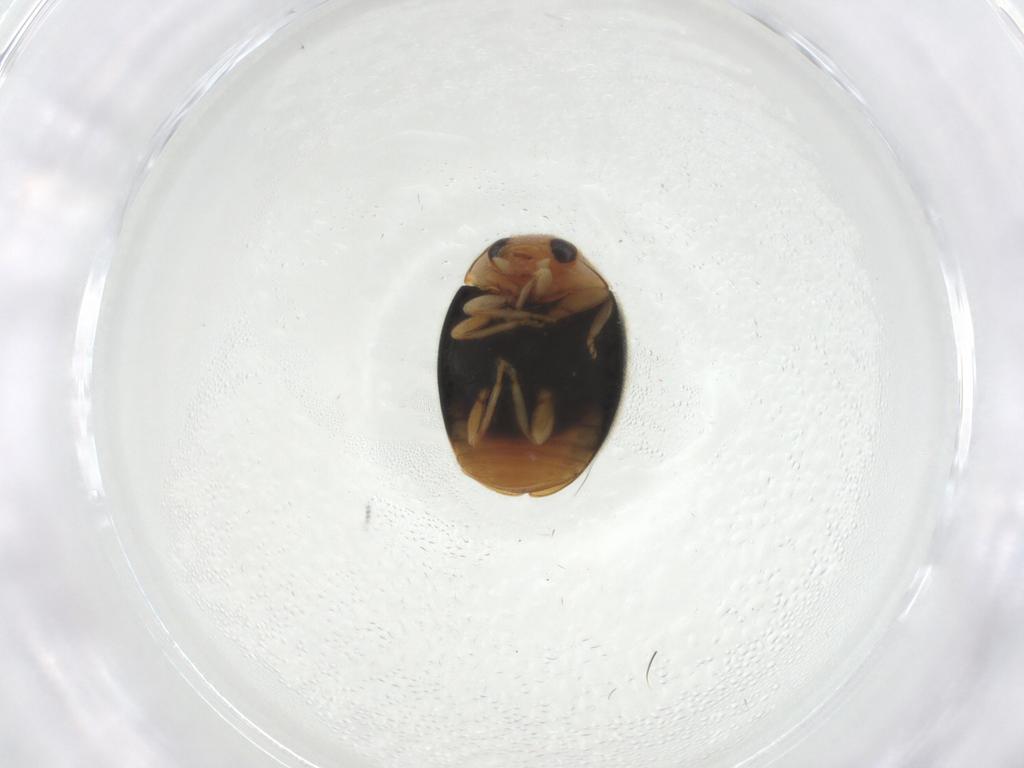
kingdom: Animalia
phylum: Arthropoda
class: Insecta
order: Coleoptera
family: Coccinellidae
